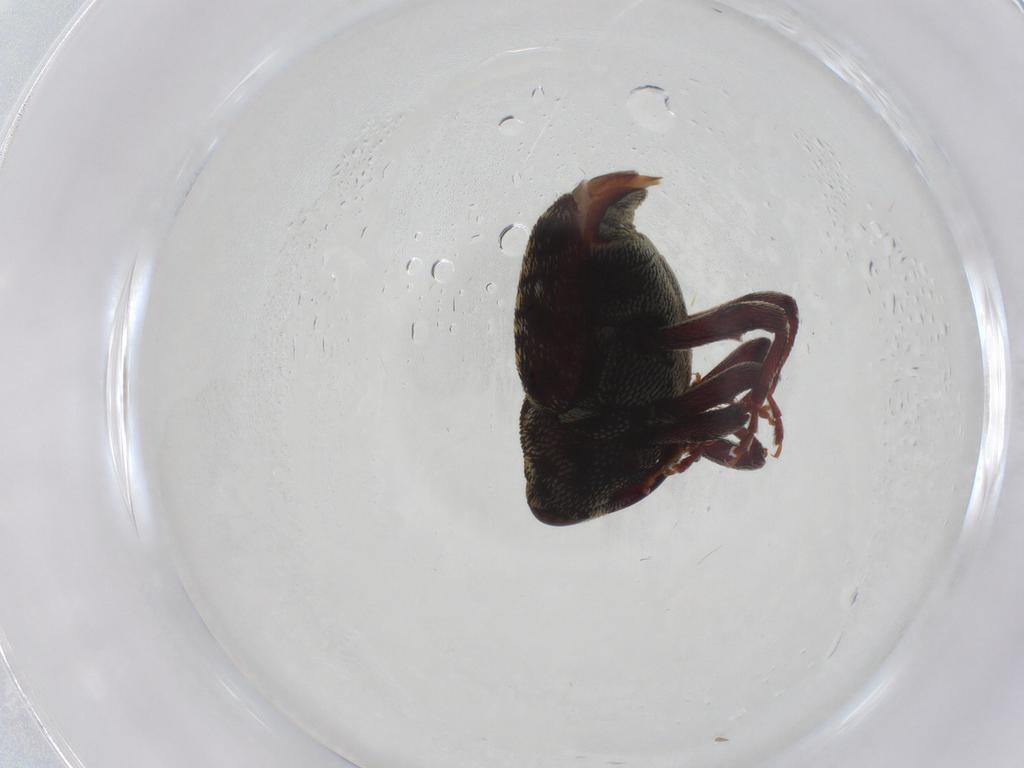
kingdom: Animalia
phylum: Arthropoda
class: Insecta
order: Coleoptera
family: Curculionidae
